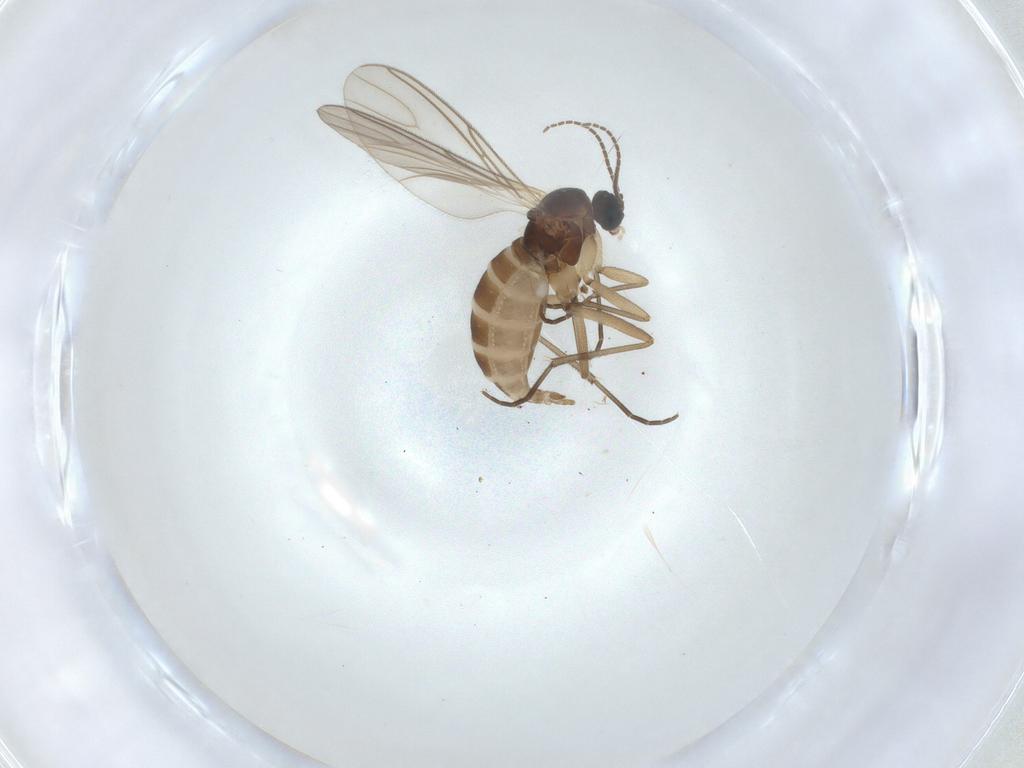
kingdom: Animalia
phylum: Arthropoda
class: Insecta
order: Diptera
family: Sciaridae
